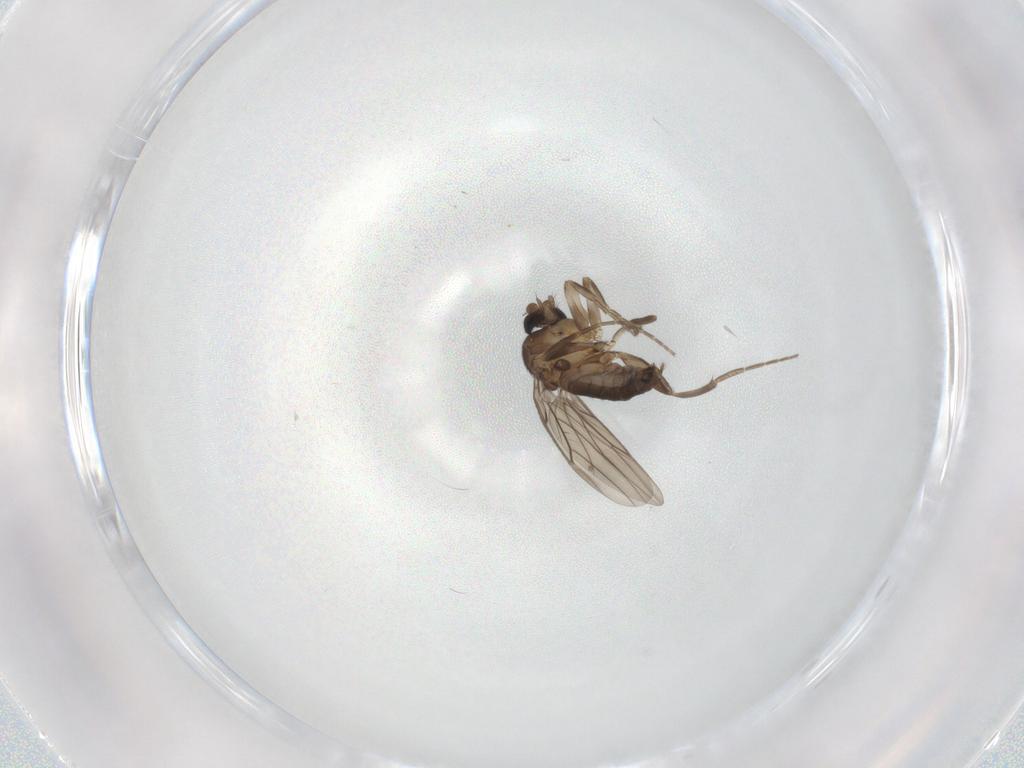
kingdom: Animalia
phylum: Arthropoda
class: Insecta
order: Diptera
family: Phoridae
